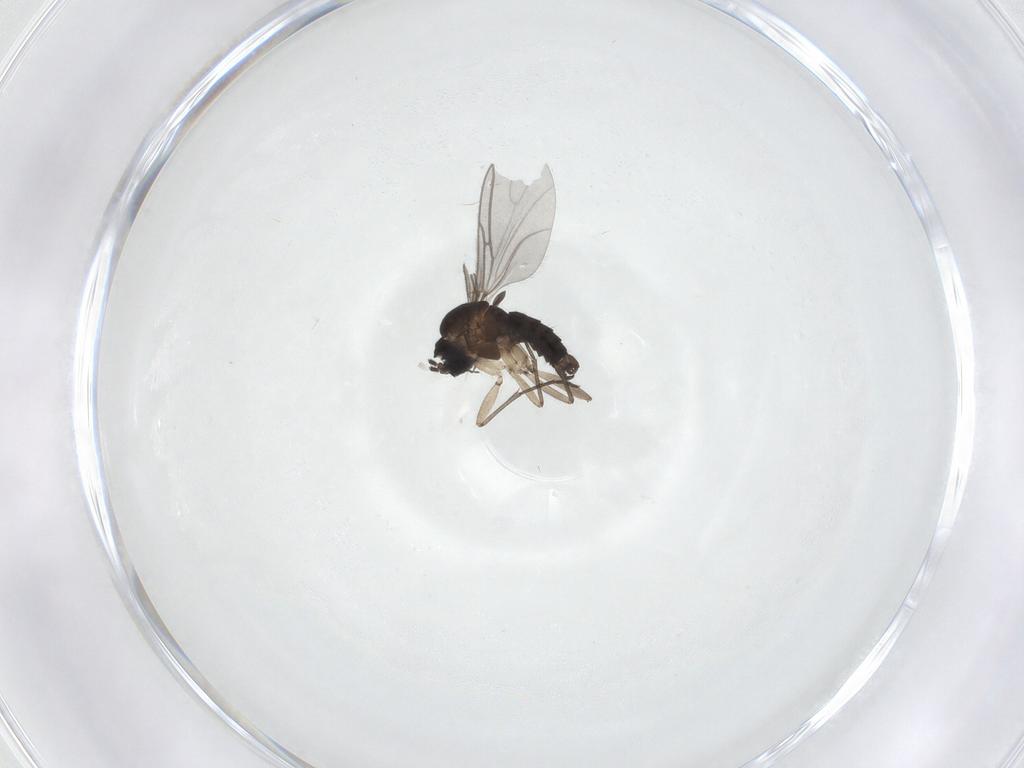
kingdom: Animalia
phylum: Arthropoda
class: Insecta
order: Diptera
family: Sciaridae
